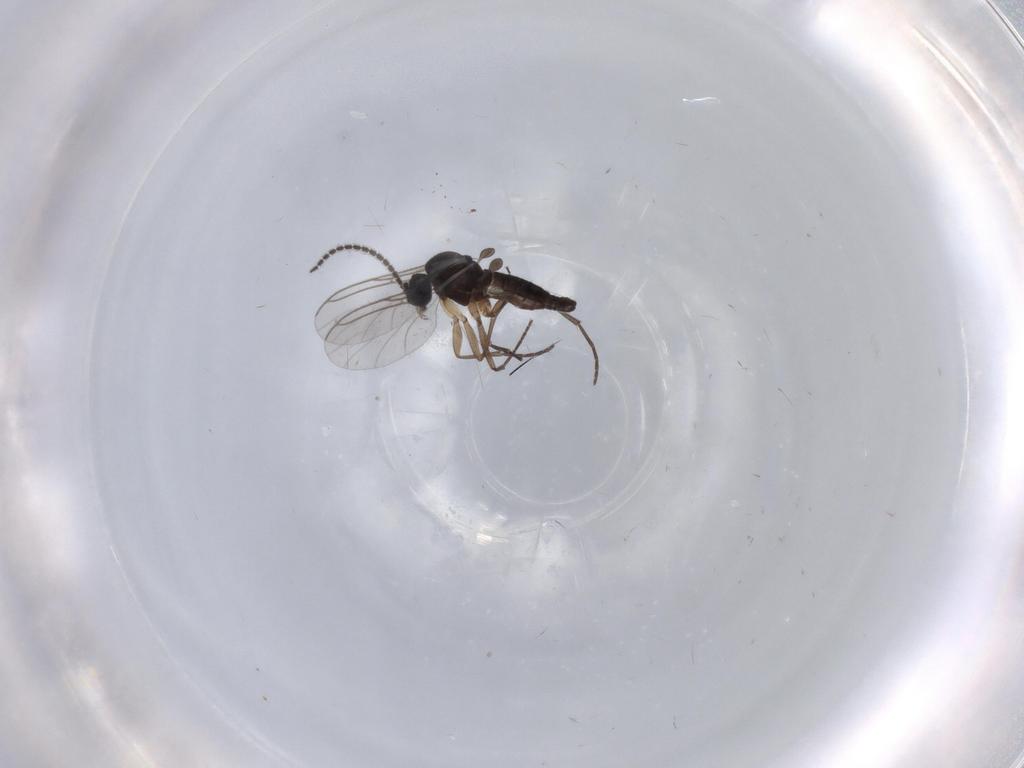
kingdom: Animalia
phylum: Arthropoda
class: Insecta
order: Diptera
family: Sciaridae
